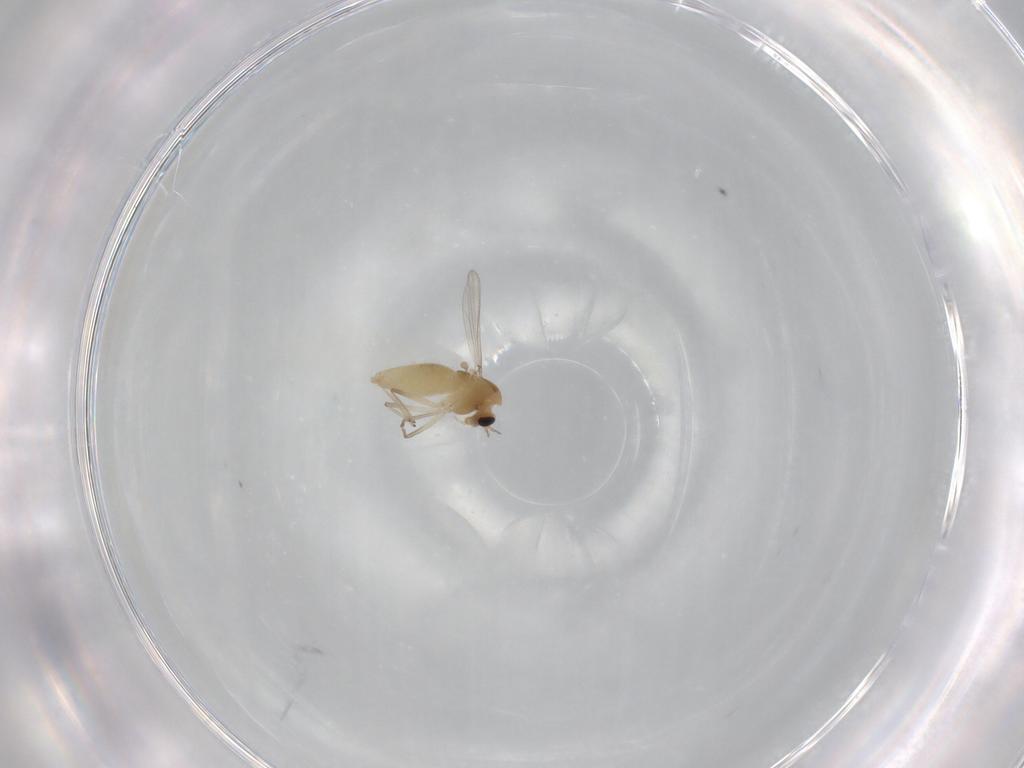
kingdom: Animalia
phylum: Arthropoda
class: Insecta
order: Diptera
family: Chironomidae
